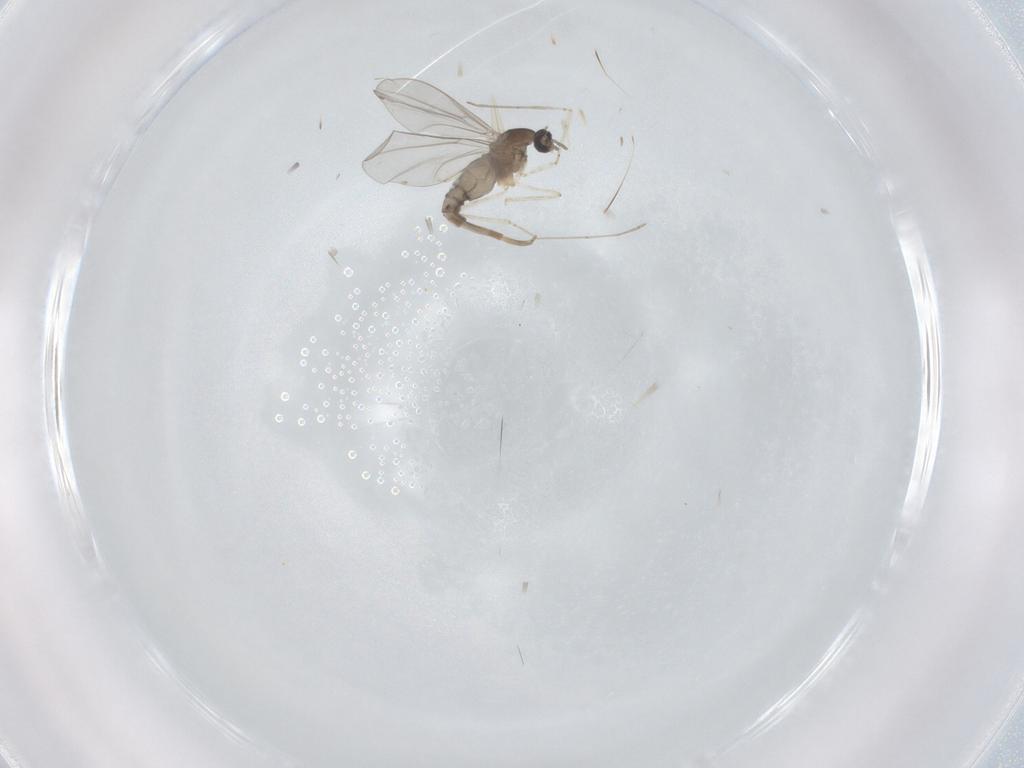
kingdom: Animalia
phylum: Arthropoda
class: Insecta
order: Diptera
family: Cecidomyiidae
